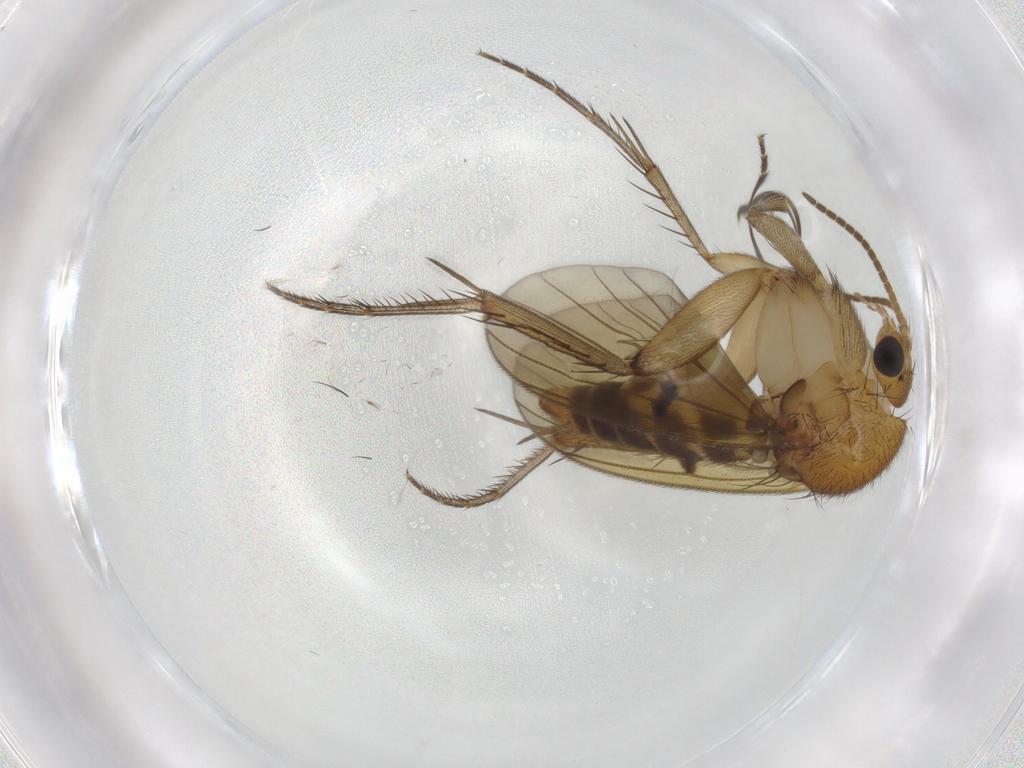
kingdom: Animalia
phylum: Arthropoda
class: Insecta
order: Diptera
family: Mycetophilidae
